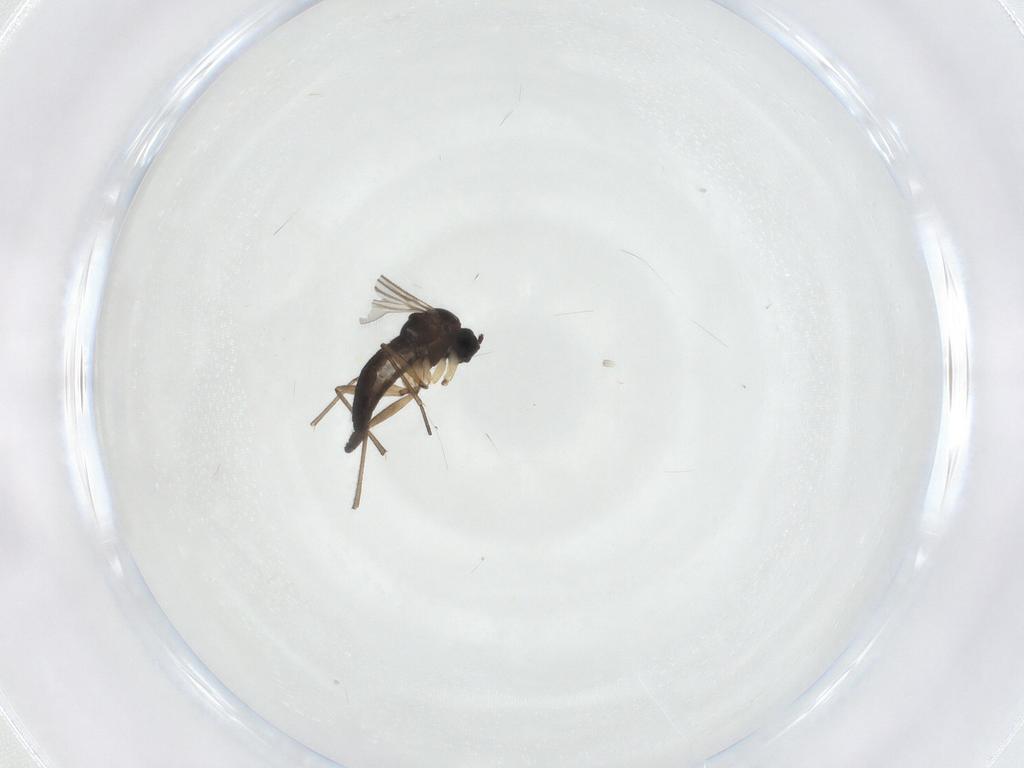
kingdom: Animalia
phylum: Arthropoda
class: Insecta
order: Diptera
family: Sciaridae
